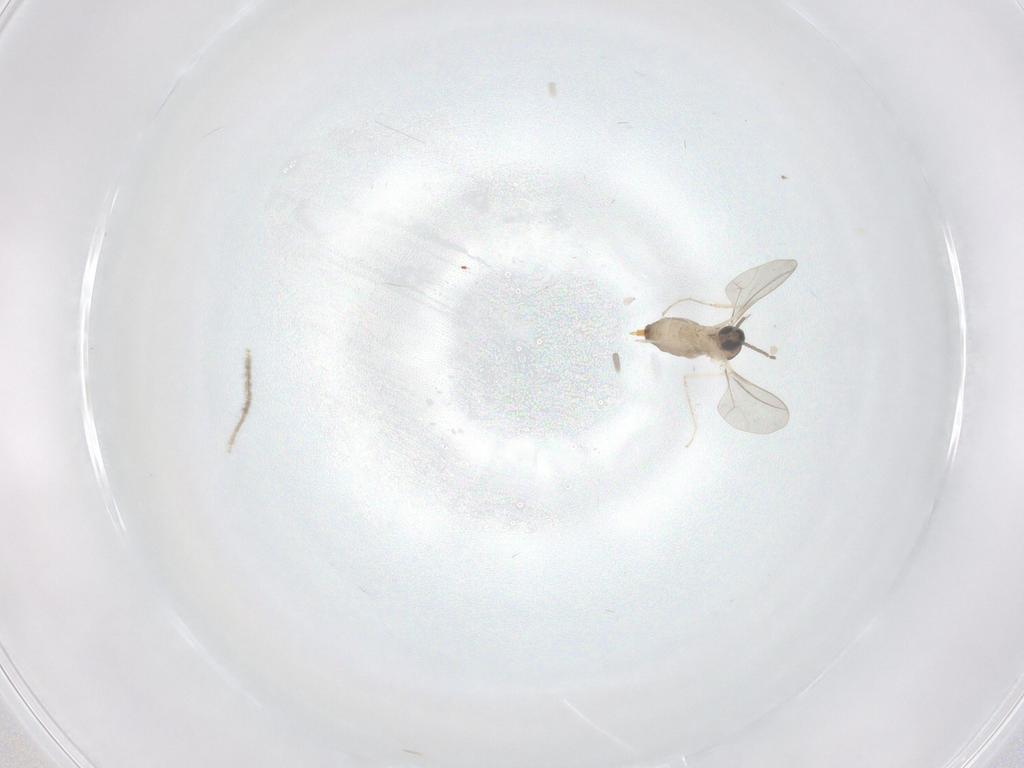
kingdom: Animalia
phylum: Arthropoda
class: Insecta
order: Diptera
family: Cecidomyiidae
